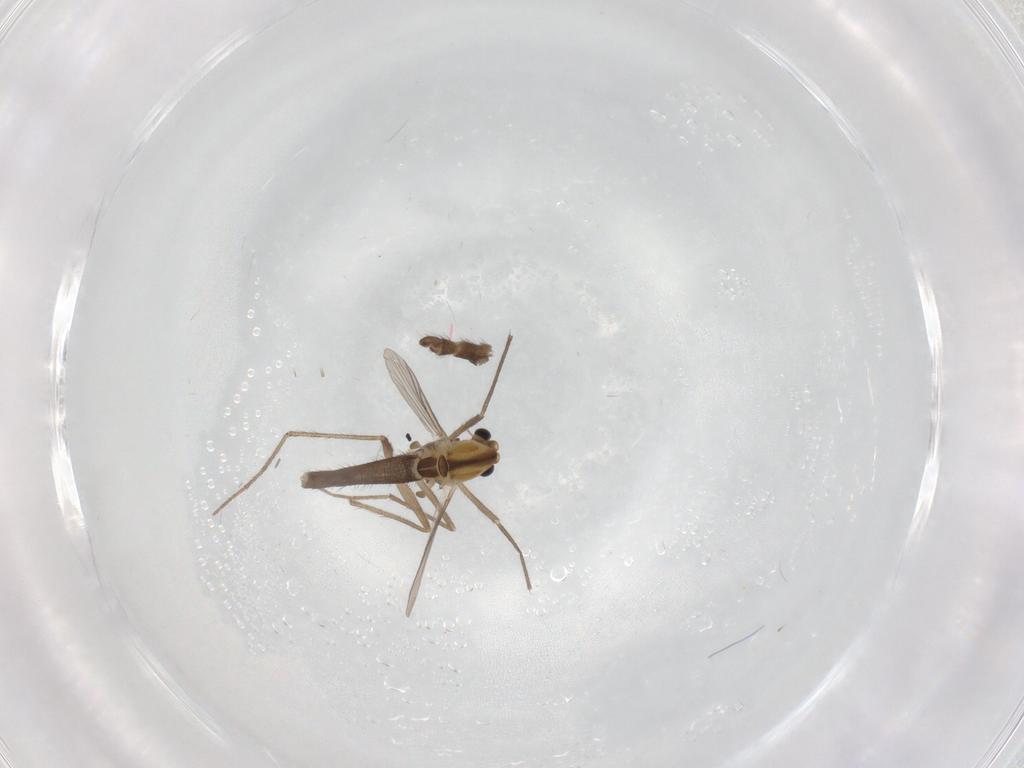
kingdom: Animalia
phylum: Arthropoda
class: Insecta
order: Diptera
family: Chironomidae
